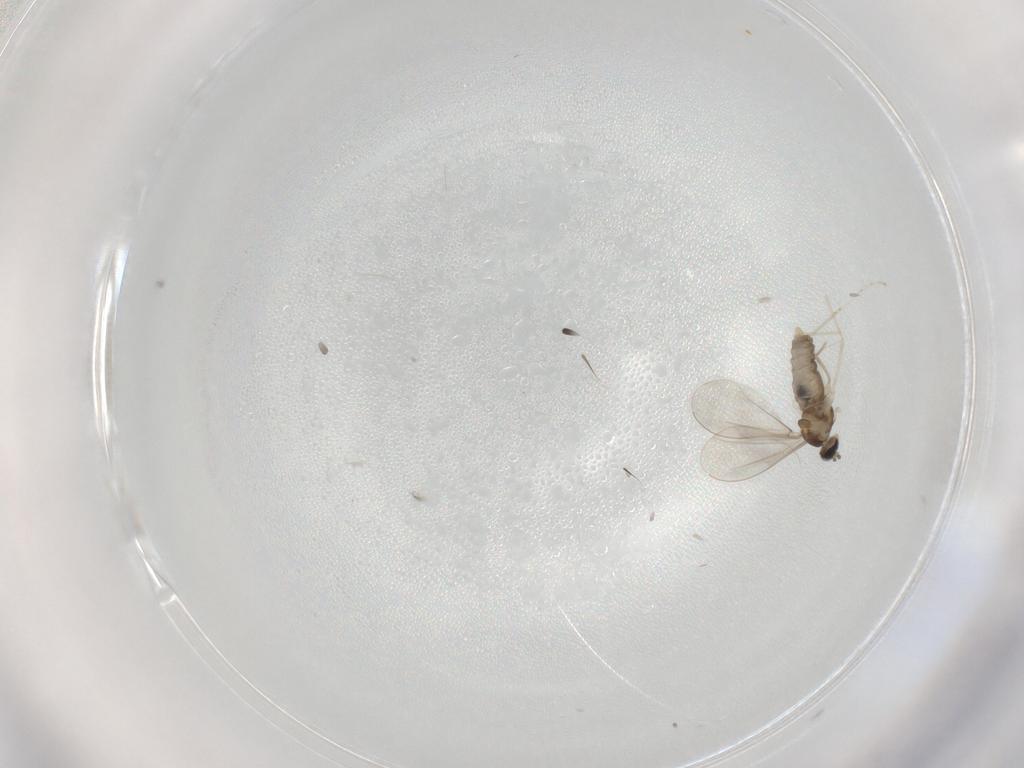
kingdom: Animalia
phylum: Arthropoda
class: Insecta
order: Diptera
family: Cecidomyiidae
